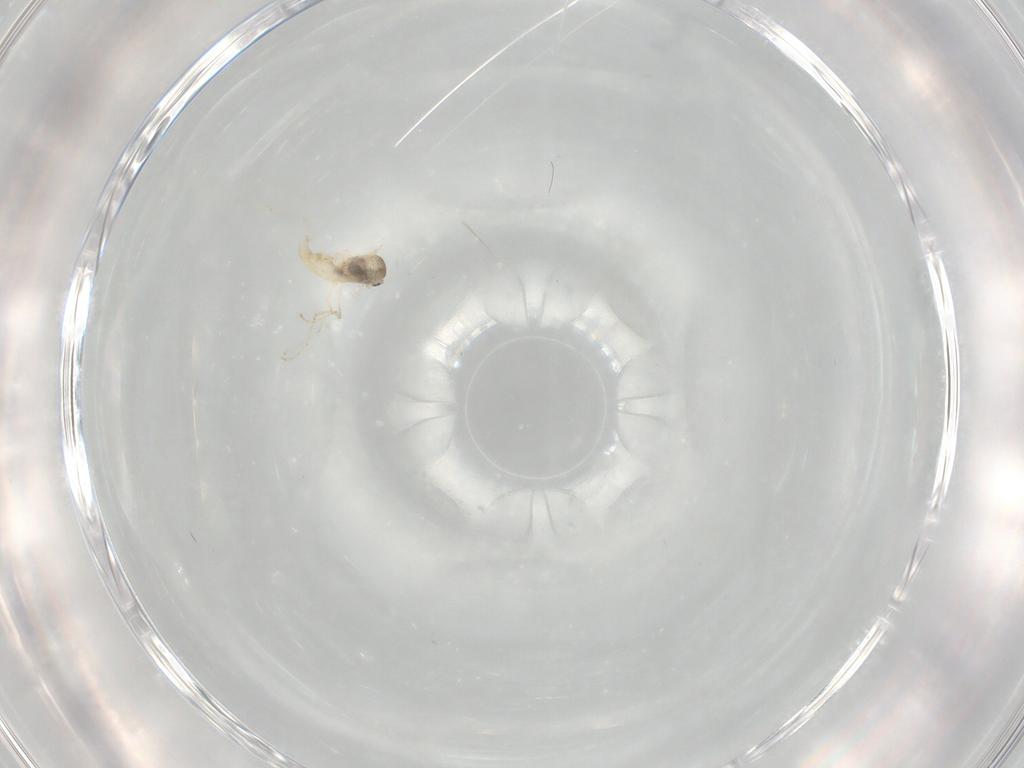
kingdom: Animalia
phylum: Arthropoda
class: Insecta
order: Diptera
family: Cecidomyiidae
